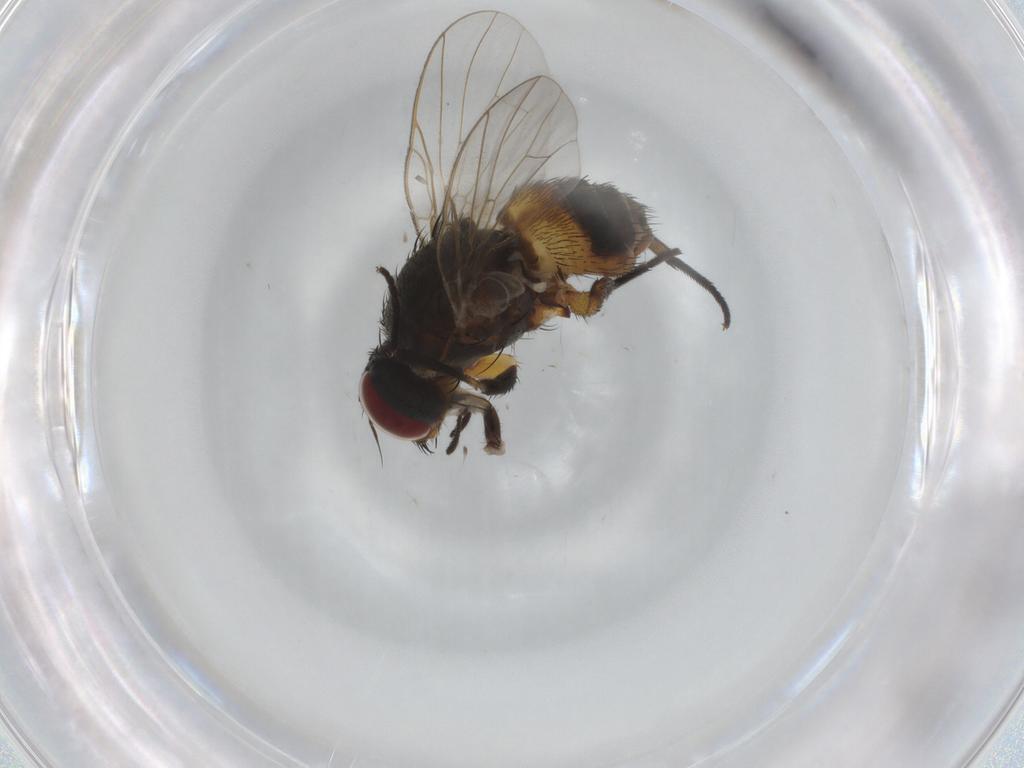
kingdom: Animalia
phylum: Arthropoda
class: Insecta
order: Diptera
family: Muscidae
